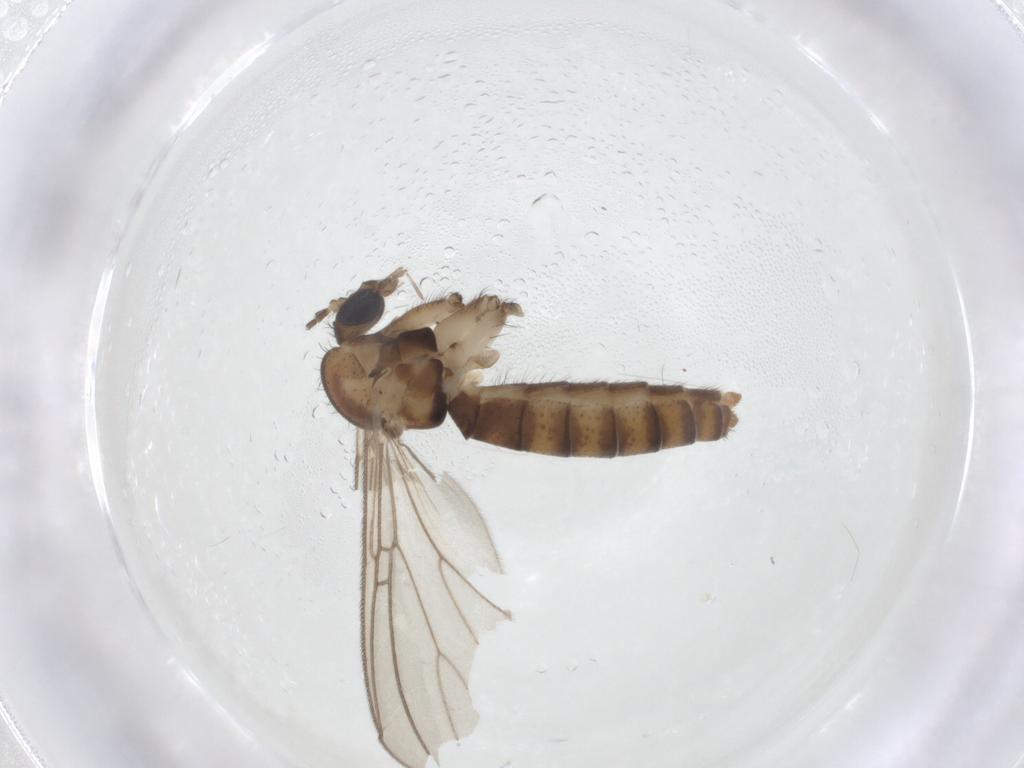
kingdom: Animalia
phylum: Arthropoda
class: Insecta
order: Diptera
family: Mycetophilidae
